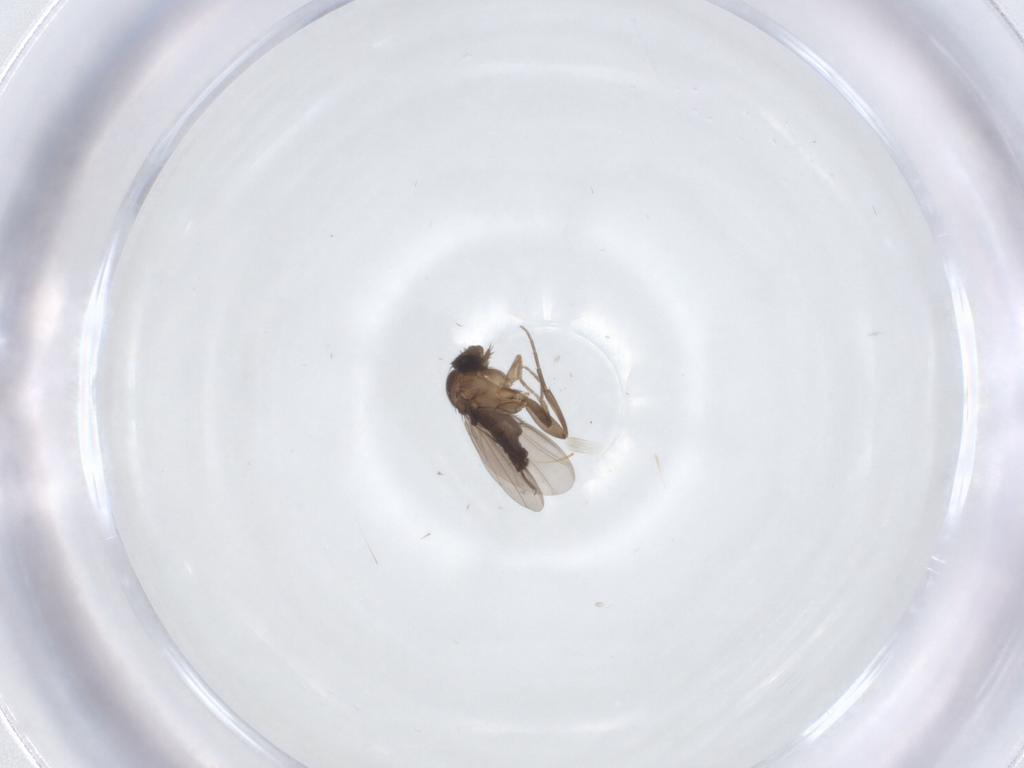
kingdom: Animalia
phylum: Arthropoda
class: Insecta
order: Diptera
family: Phoridae
